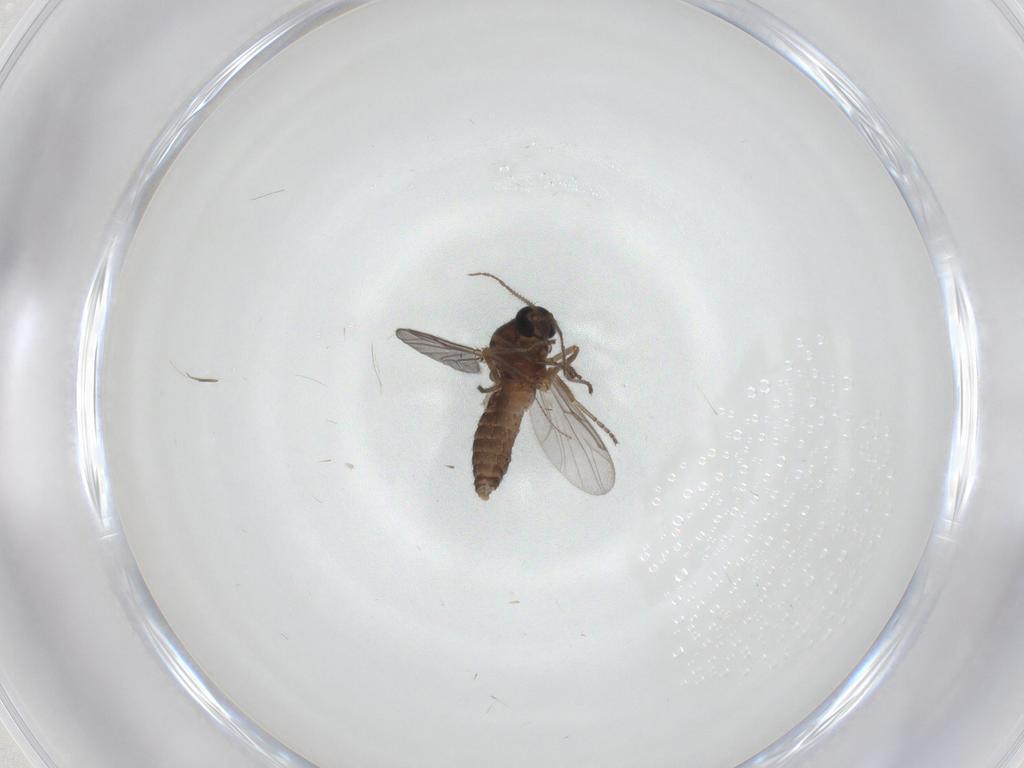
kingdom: Animalia
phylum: Arthropoda
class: Insecta
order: Diptera
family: Ceratopogonidae
